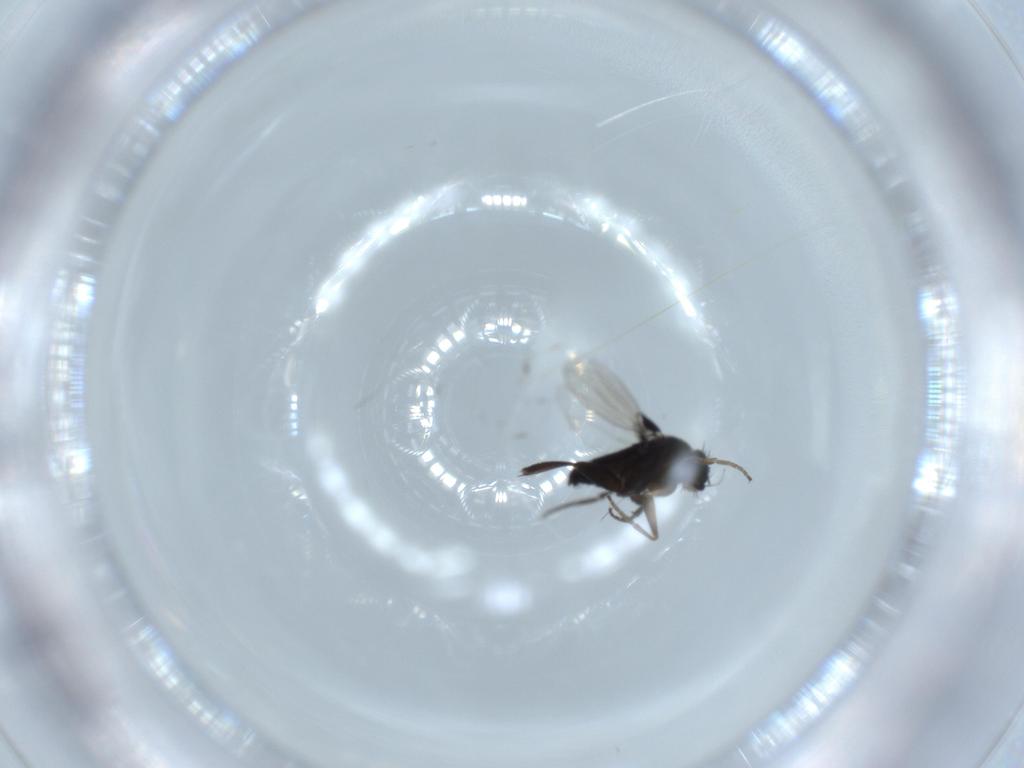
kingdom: Animalia
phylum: Arthropoda
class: Insecta
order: Diptera
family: Phoridae
